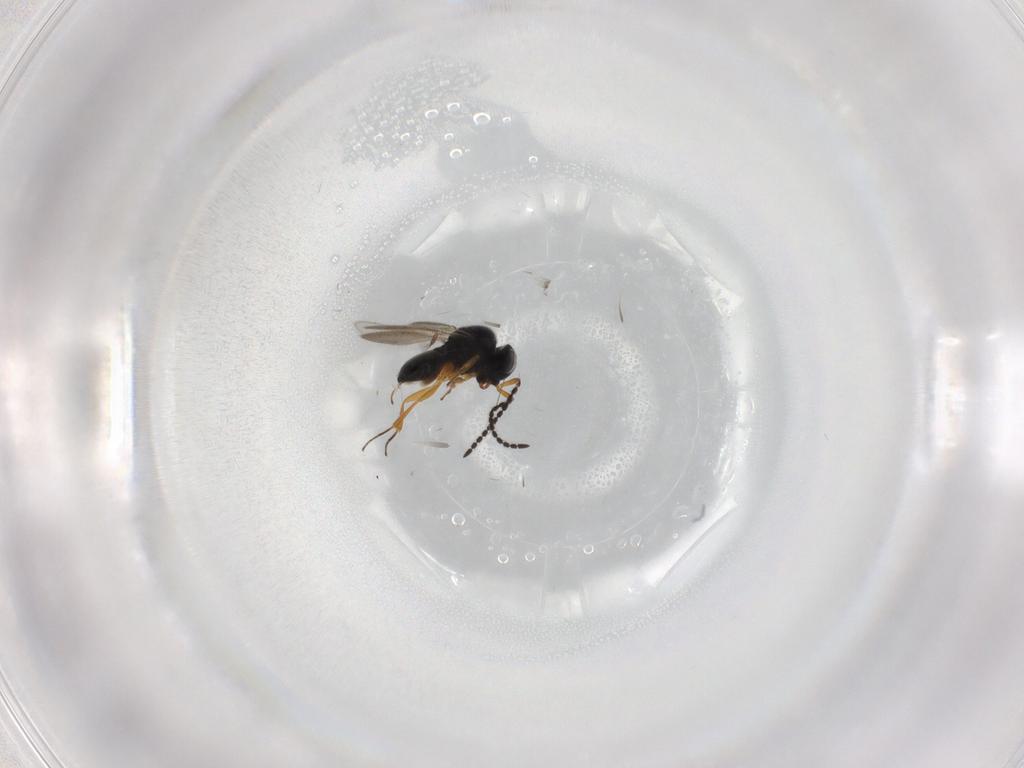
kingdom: Animalia
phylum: Arthropoda
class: Insecta
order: Hymenoptera
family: Scelionidae
